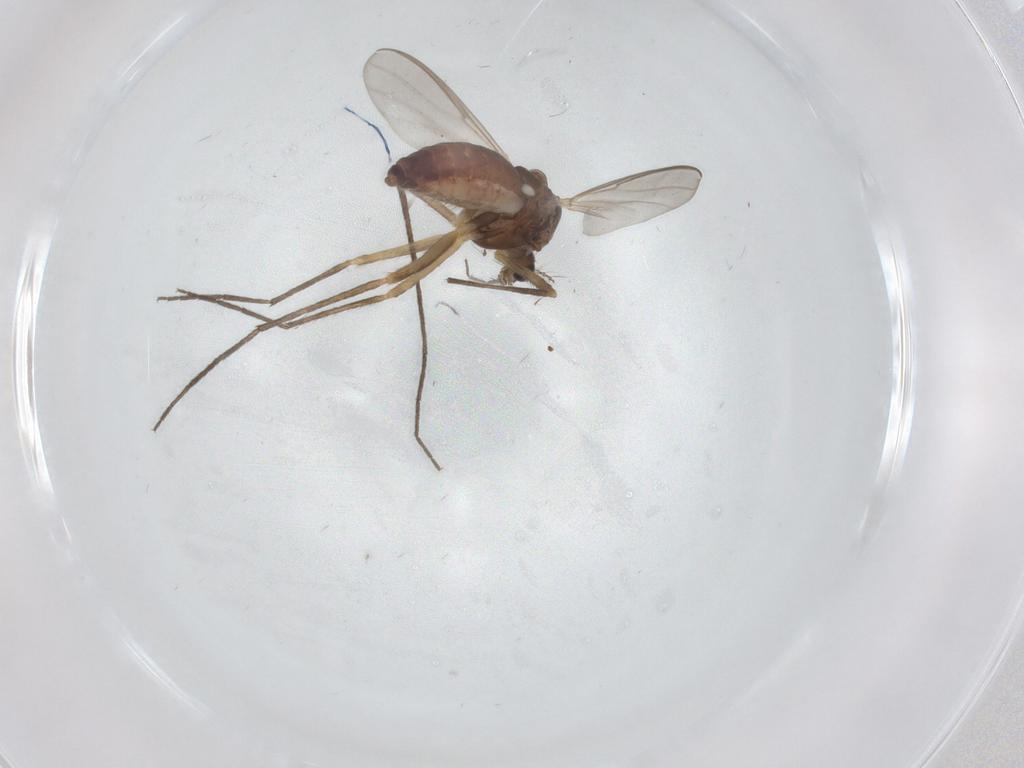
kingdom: Animalia
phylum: Arthropoda
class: Insecta
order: Diptera
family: Chironomidae
